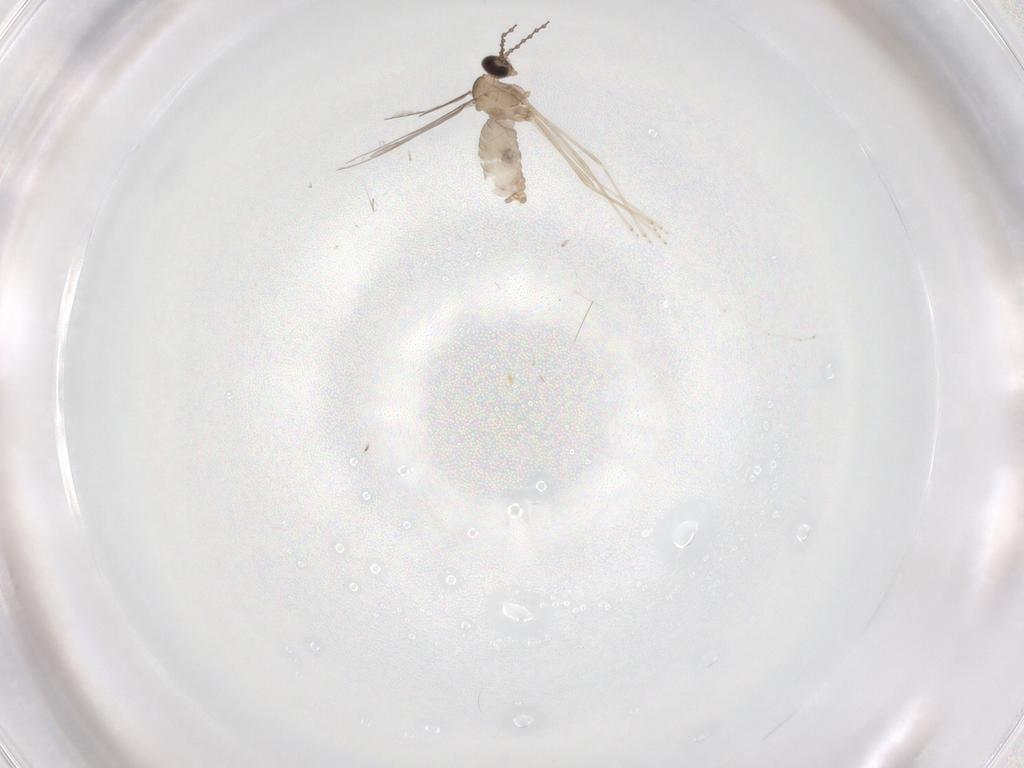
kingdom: Animalia
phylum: Arthropoda
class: Insecta
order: Diptera
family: Cecidomyiidae
